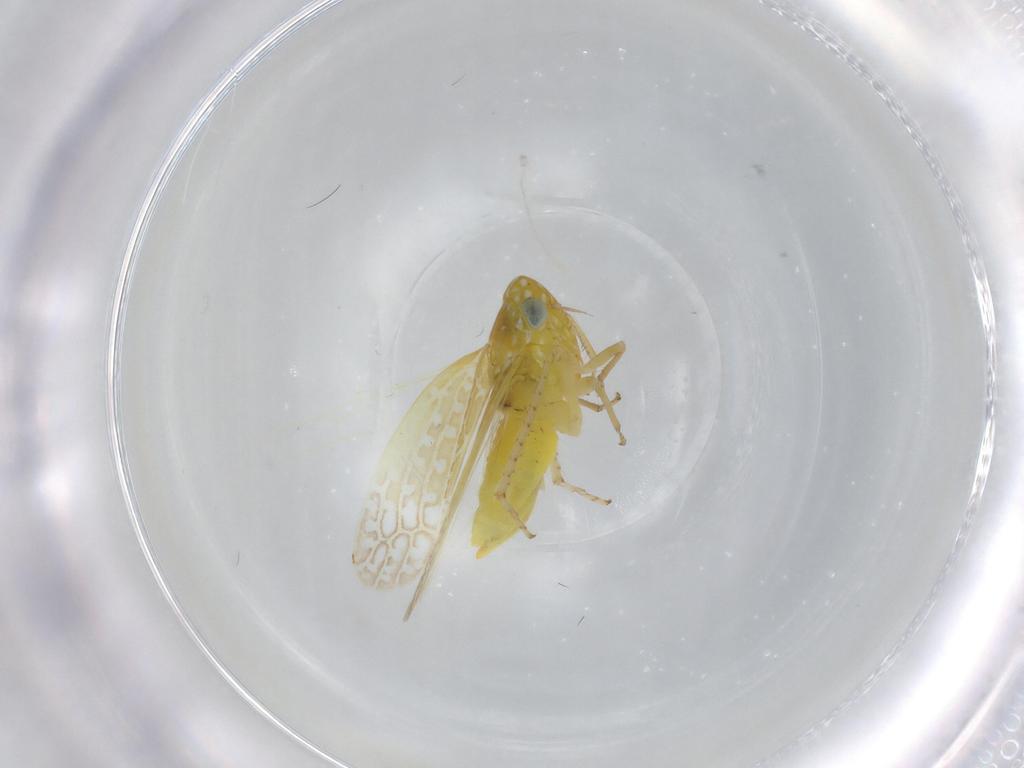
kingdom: Animalia
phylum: Arthropoda
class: Insecta
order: Hemiptera
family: Cicadellidae
